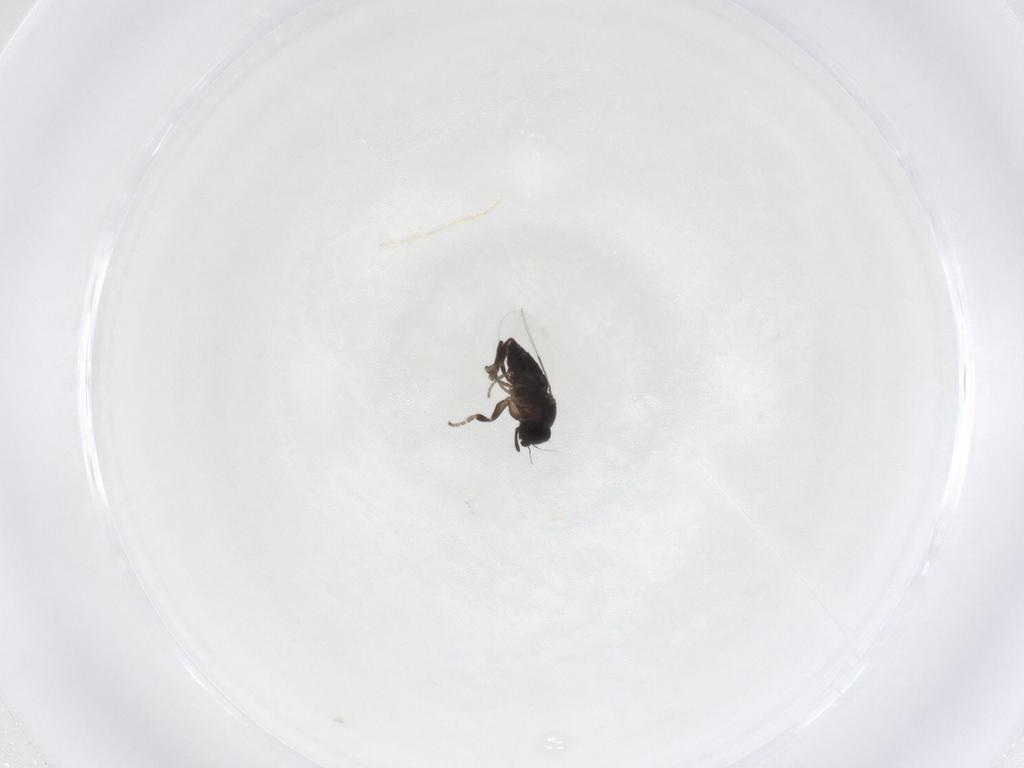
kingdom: Animalia
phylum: Arthropoda
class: Insecta
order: Diptera
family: Phoridae
